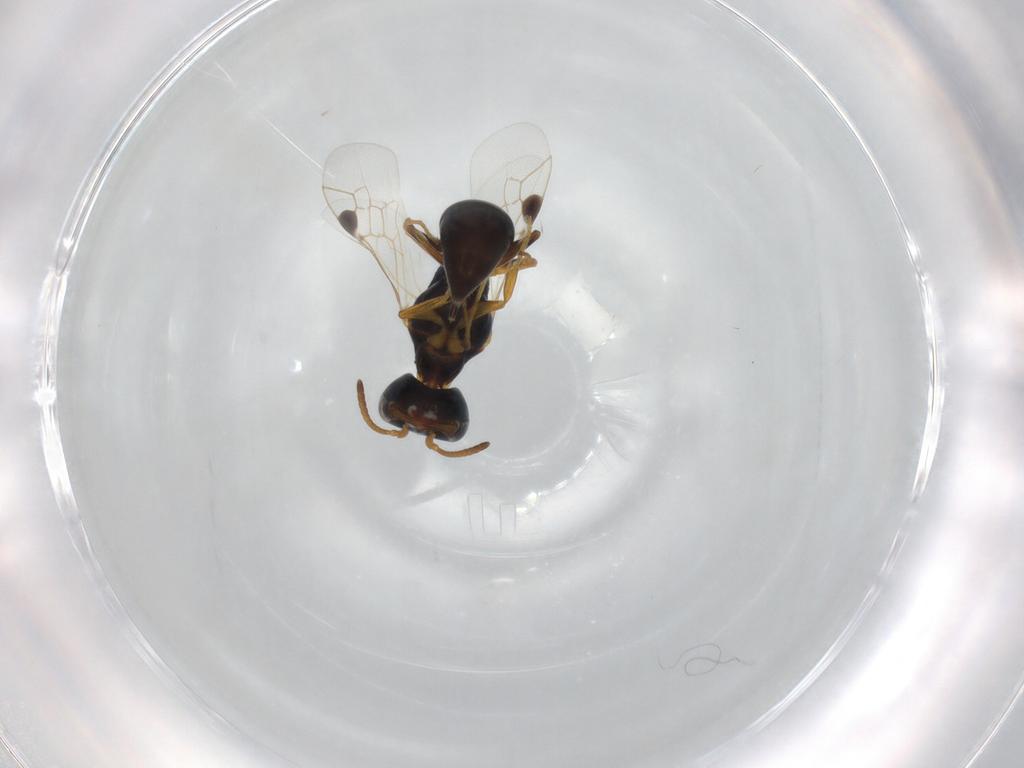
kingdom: Animalia
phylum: Arthropoda
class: Insecta
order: Hymenoptera
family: Pemphredonidae
